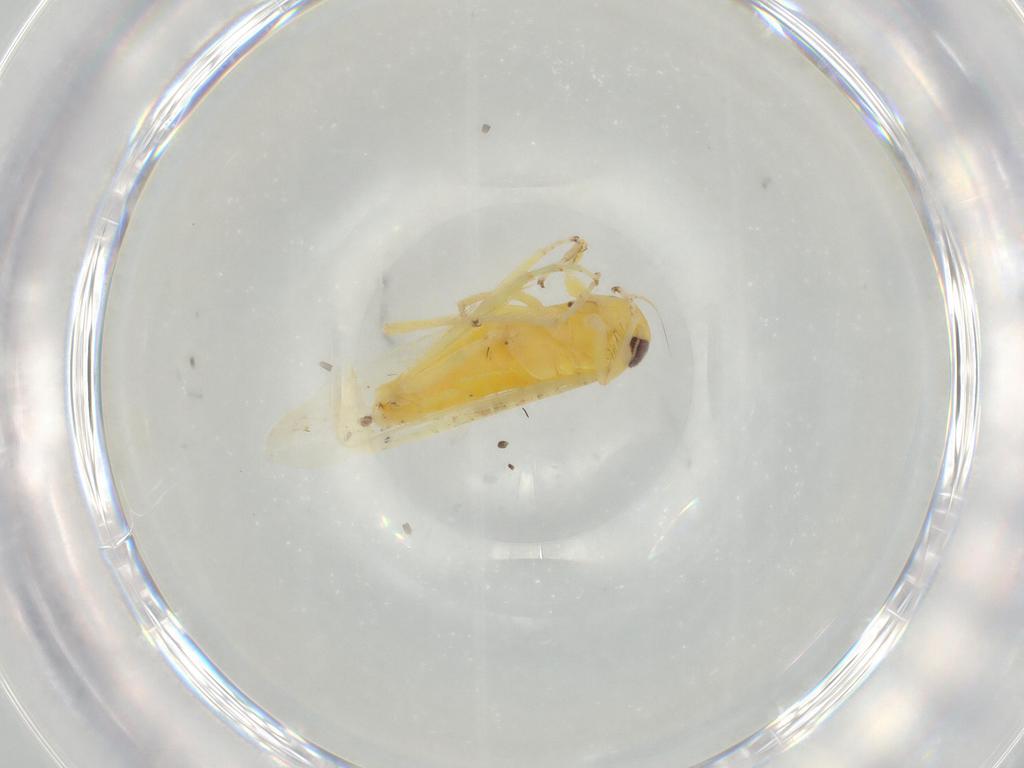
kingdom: Animalia
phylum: Arthropoda
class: Insecta
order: Hemiptera
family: Cicadellidae
